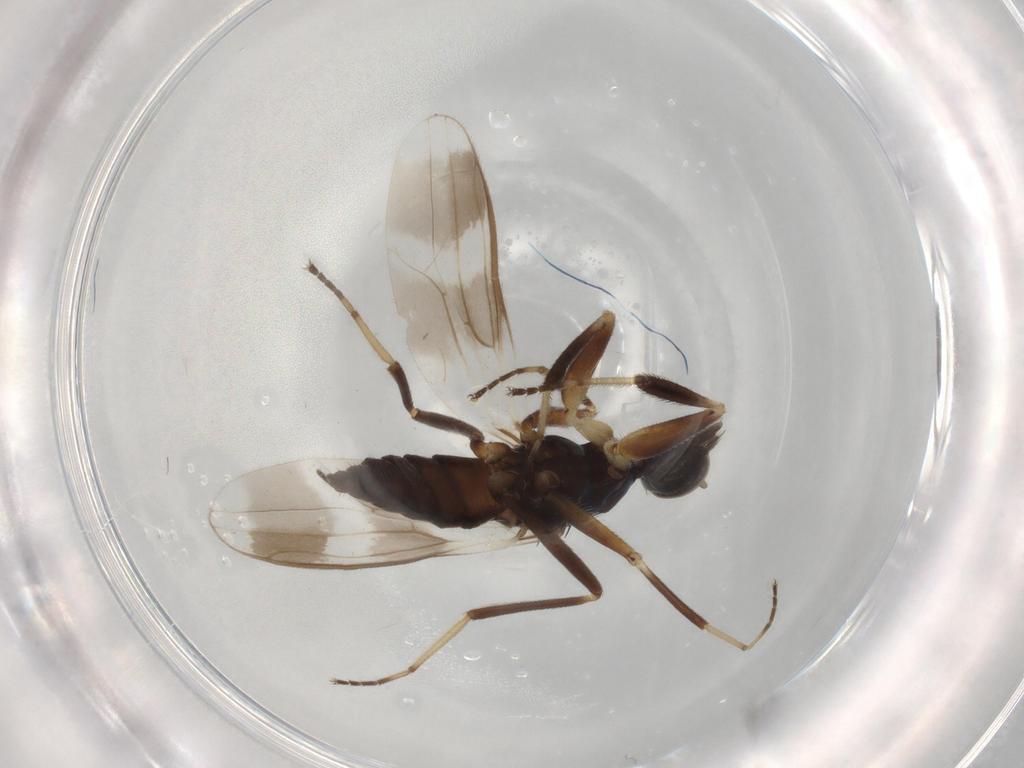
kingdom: Animalia
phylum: Arthropoda
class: Insecta
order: Diptera
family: Hybotidae
